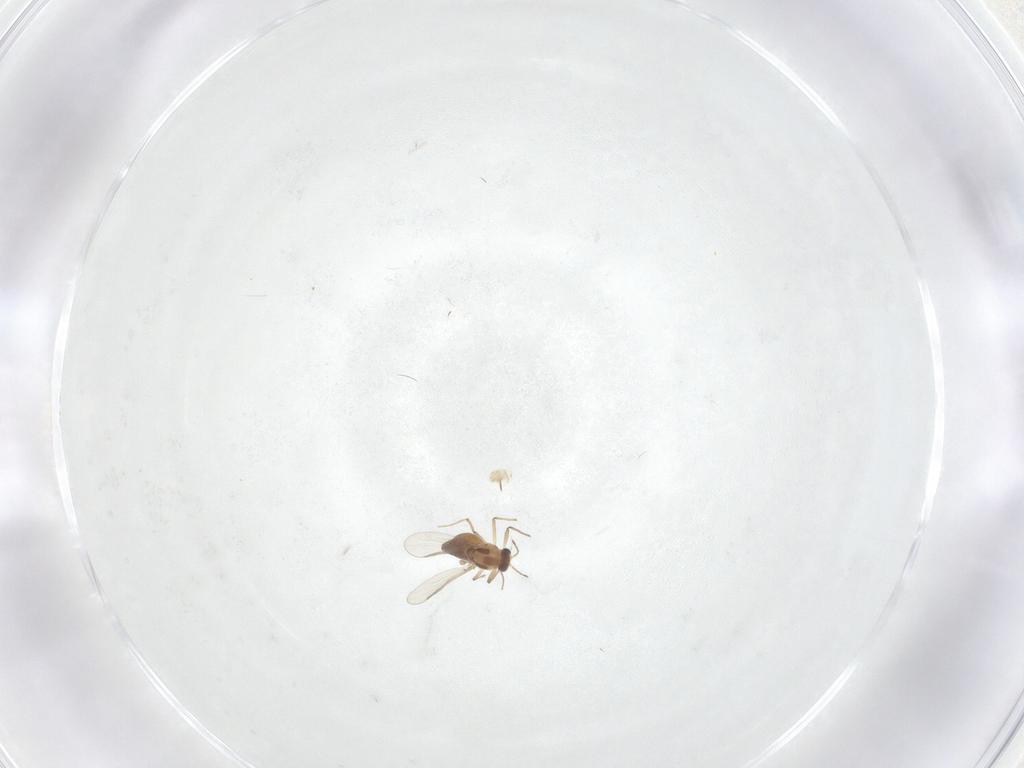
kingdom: Animalia
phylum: Arthropoda
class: Insecta
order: Diptera
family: Chironomidae
